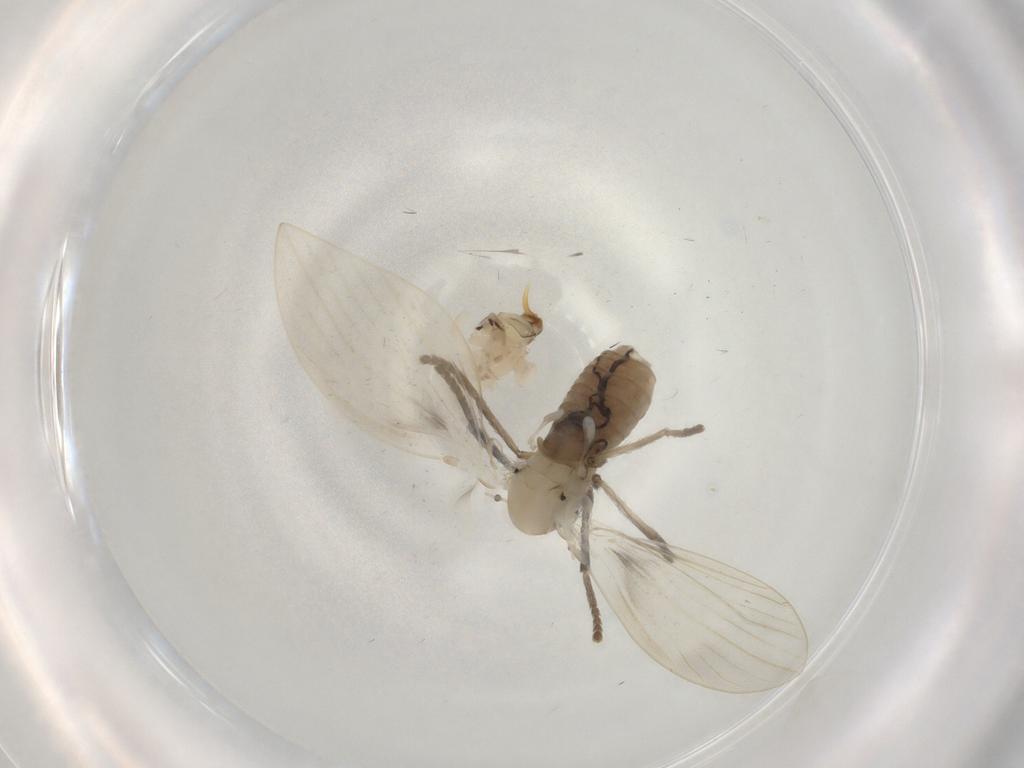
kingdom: Animalia
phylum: Arthropoda
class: Insecta
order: Diptera
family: Psychodidae
